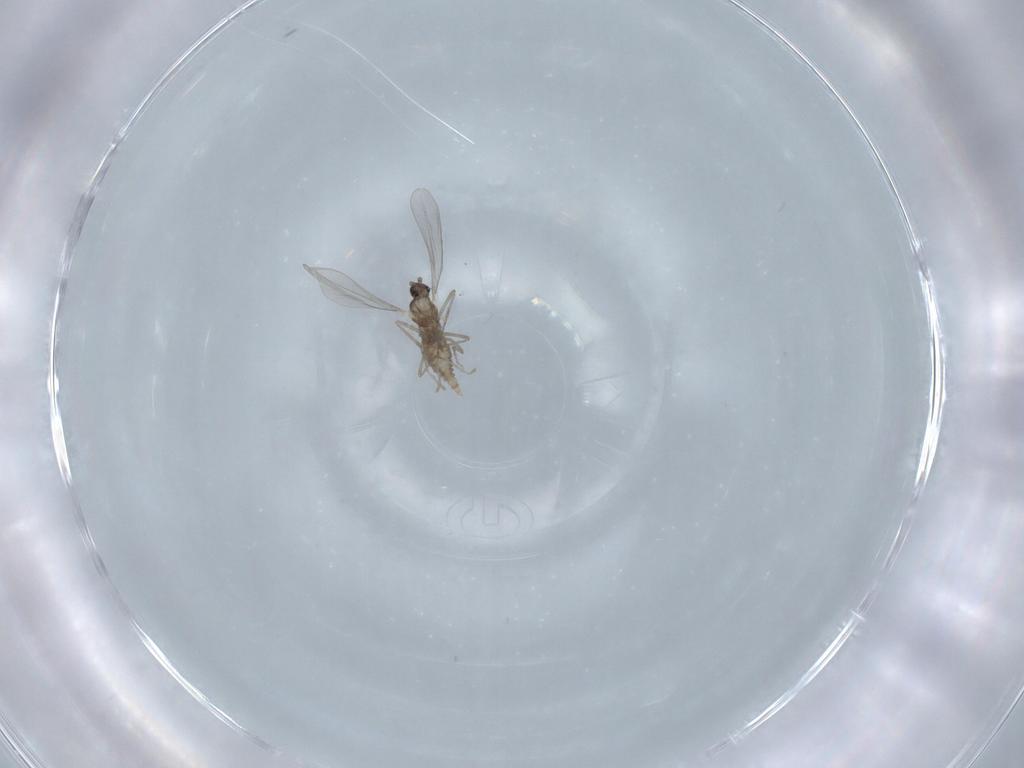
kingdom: Animalia
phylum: Arthropoda
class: Insecta
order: Diptera
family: Cecidomyiidae
